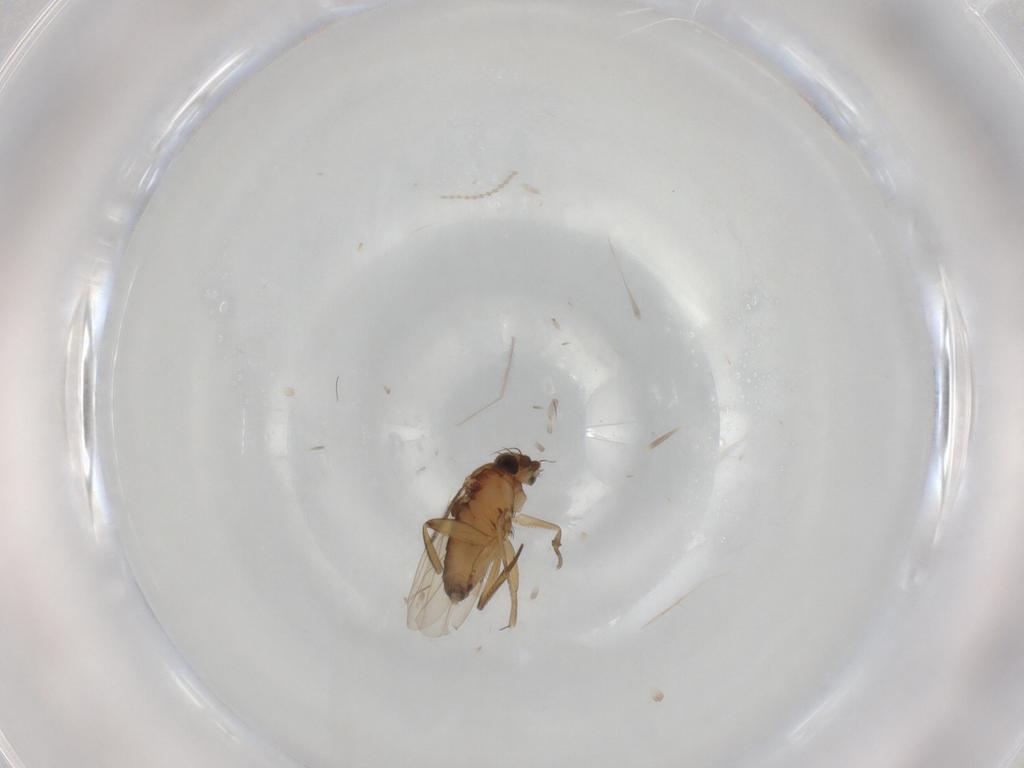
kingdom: Animalia
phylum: Arthropoda
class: Insecta
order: Diptera
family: Phoridae
